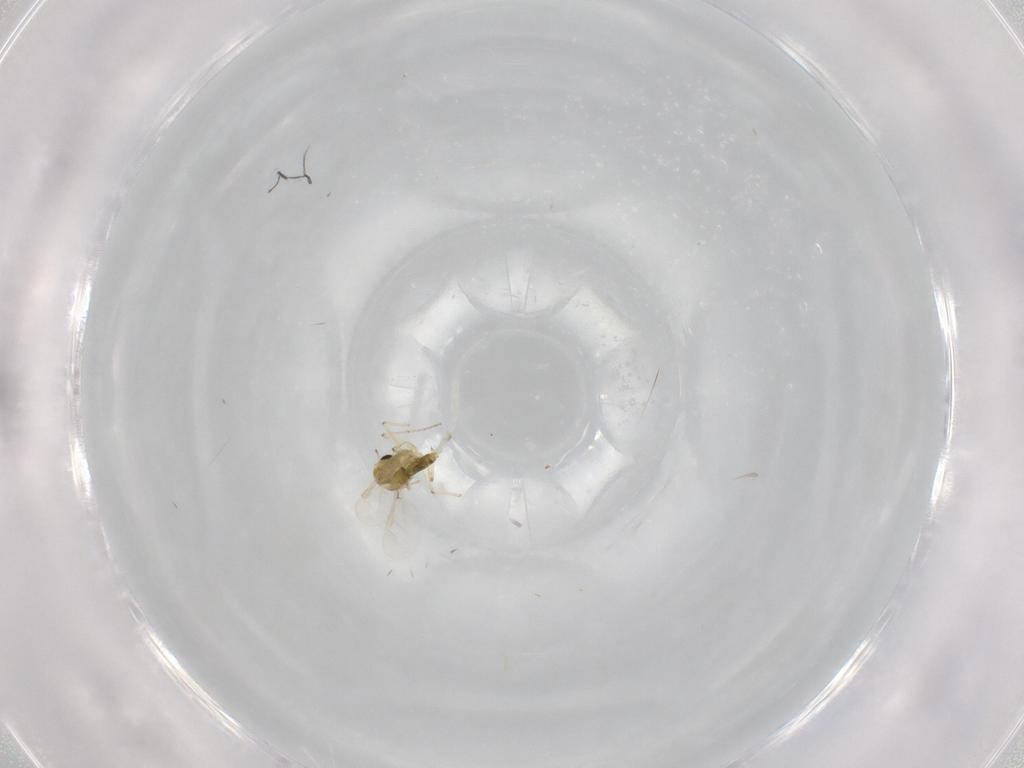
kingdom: Animalia
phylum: Arthropoda
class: Insecta
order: Diptera
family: Chironomidae
